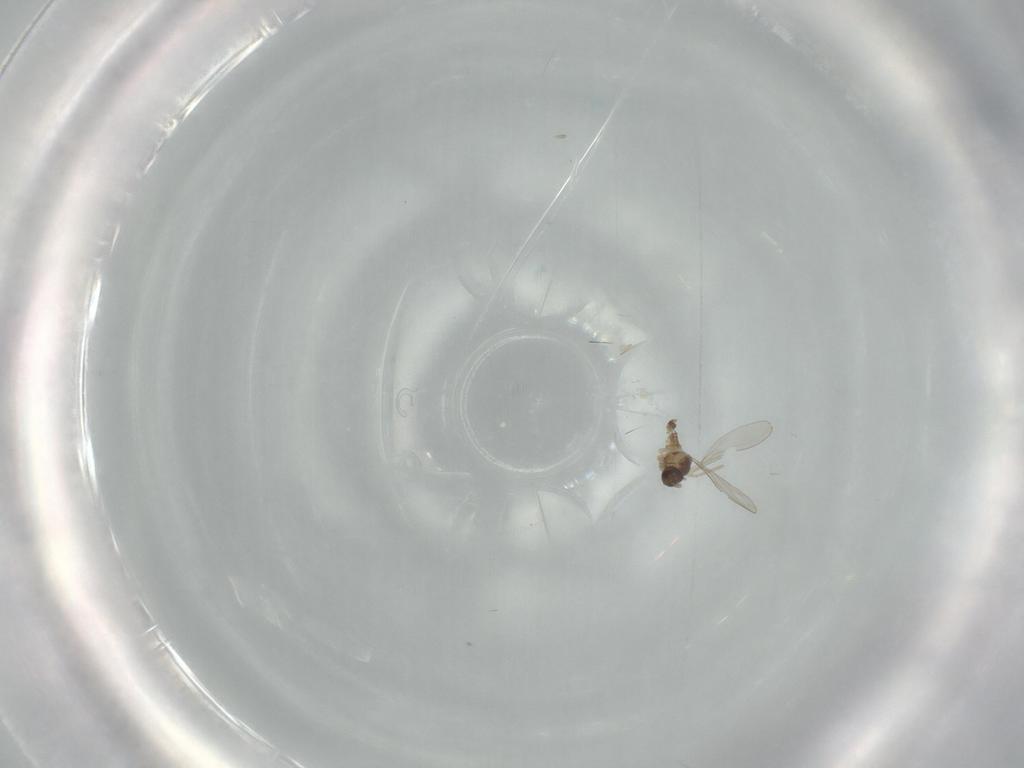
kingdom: Animalia
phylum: Arthropoda
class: Insecta
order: Diptera
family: Muscidae
